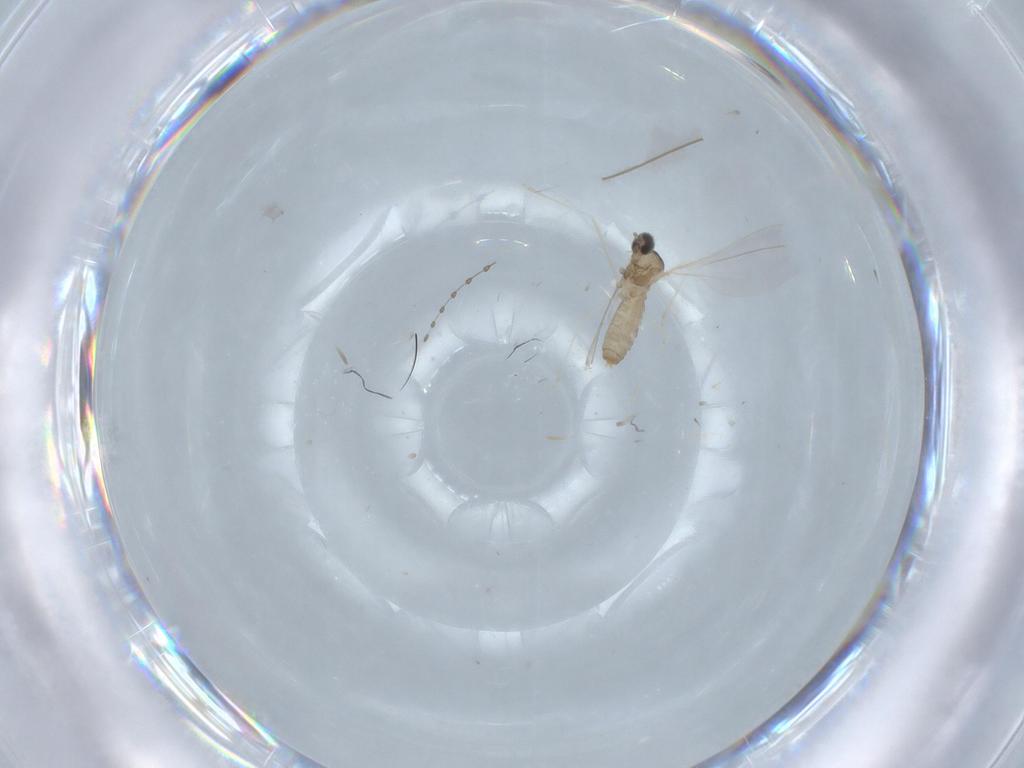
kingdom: Animalia
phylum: Arthropoda
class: Insecta
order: Diptera
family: Cecidomyiidae
